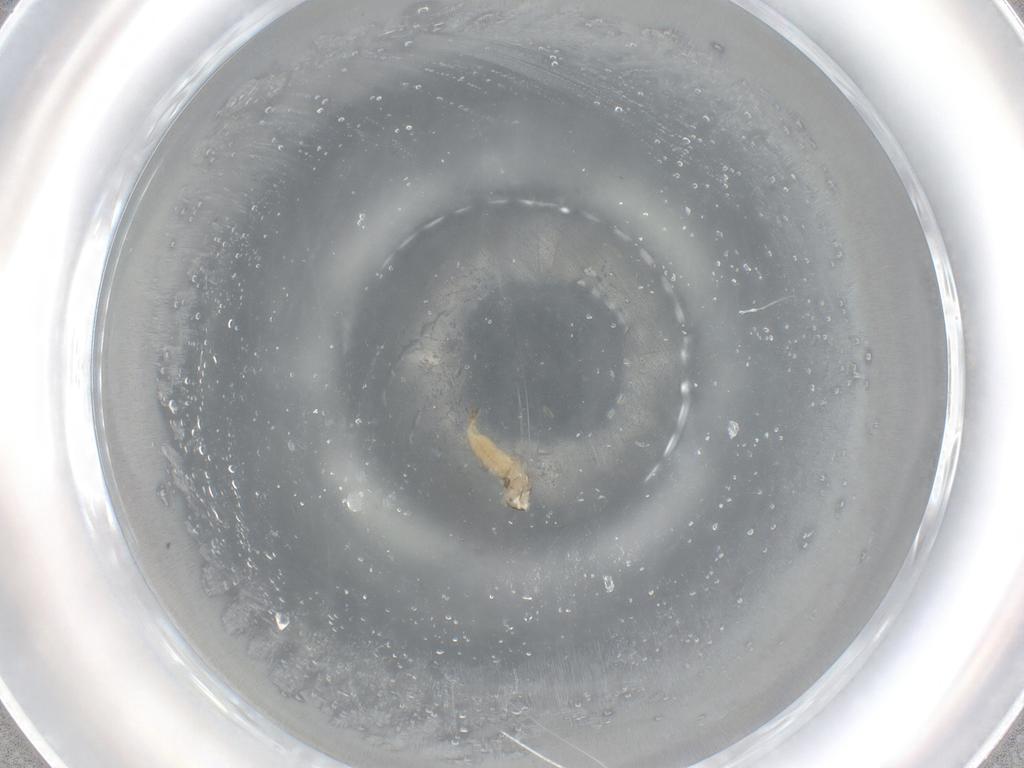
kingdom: Animalia
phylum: Arthropoda
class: Insecta
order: Diptera
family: Cecidomyiidae
